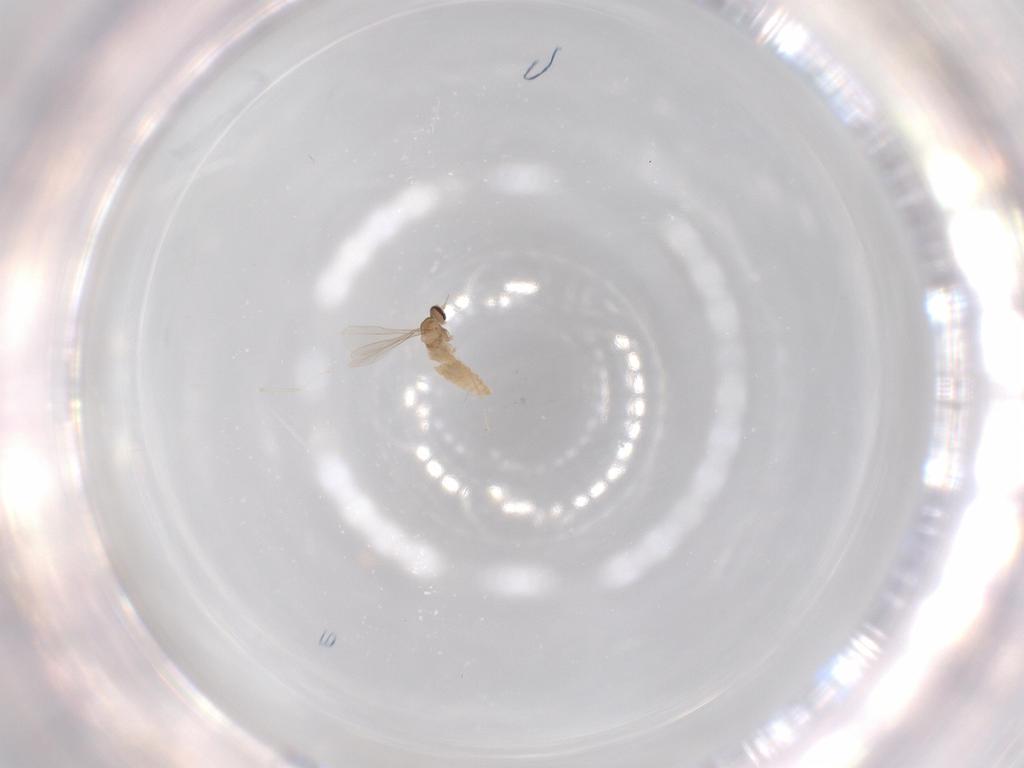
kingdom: Animalia
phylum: Arthropoda
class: Insecta
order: Diptera
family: Cecidomyiidae
